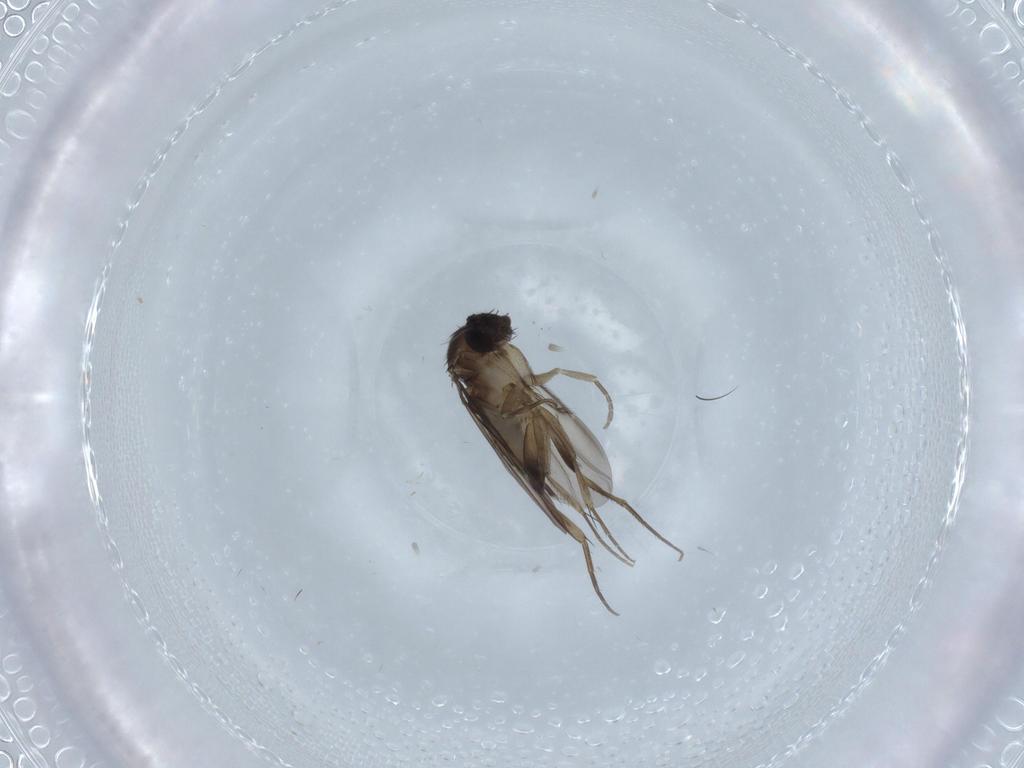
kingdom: Animalia
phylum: Arthropoda
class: Insecta
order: Diptera
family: Phoridae
